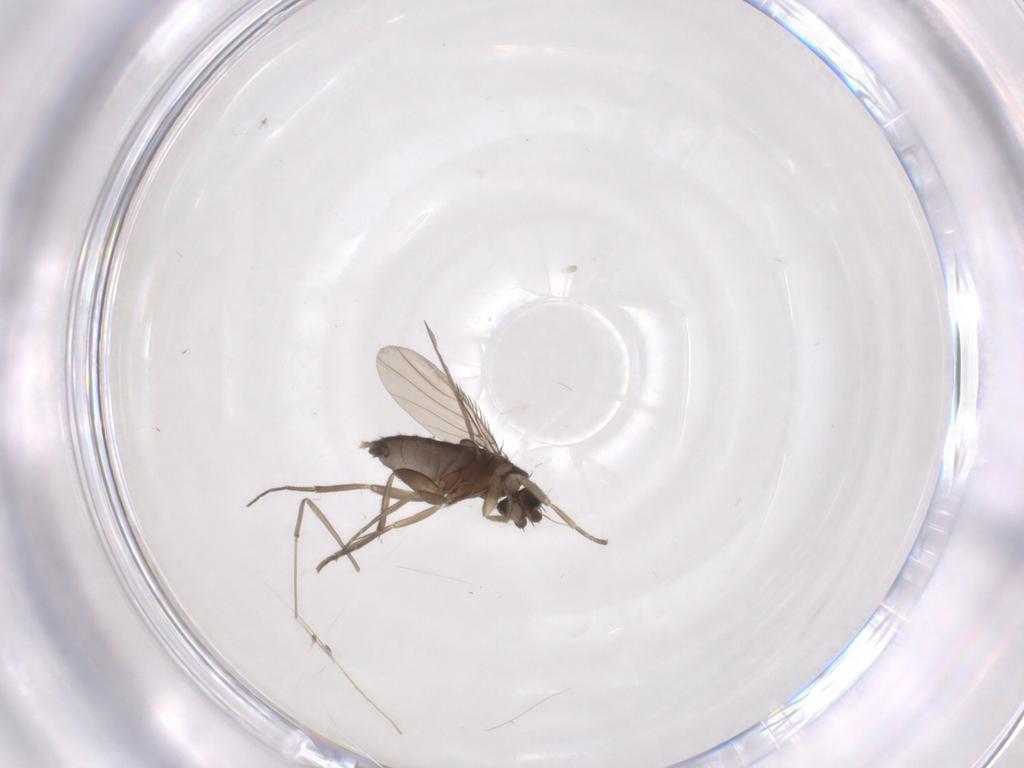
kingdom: Animalia
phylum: Arthropoda
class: Insecta
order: Diptera
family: Phoridae
